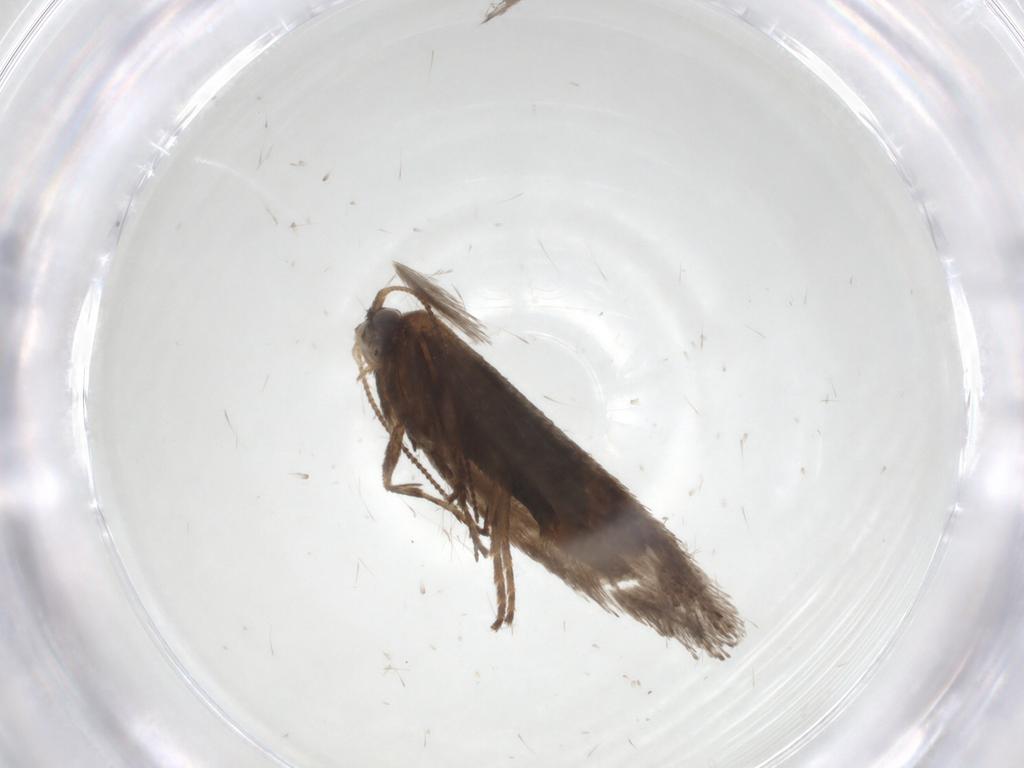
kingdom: Animalia
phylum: Arthropoda
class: Insecta
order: Lepidoptera
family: Nepticulidae
